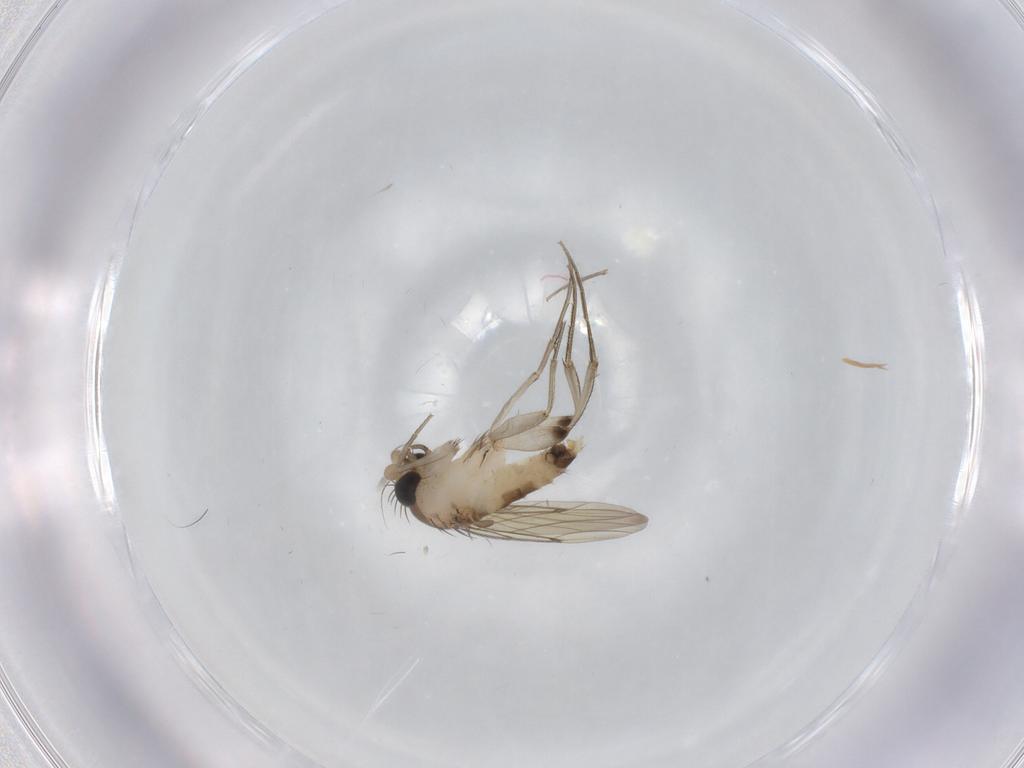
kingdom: Animalia
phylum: Arthropoda
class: Insecta
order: Diptera
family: Phoridae
